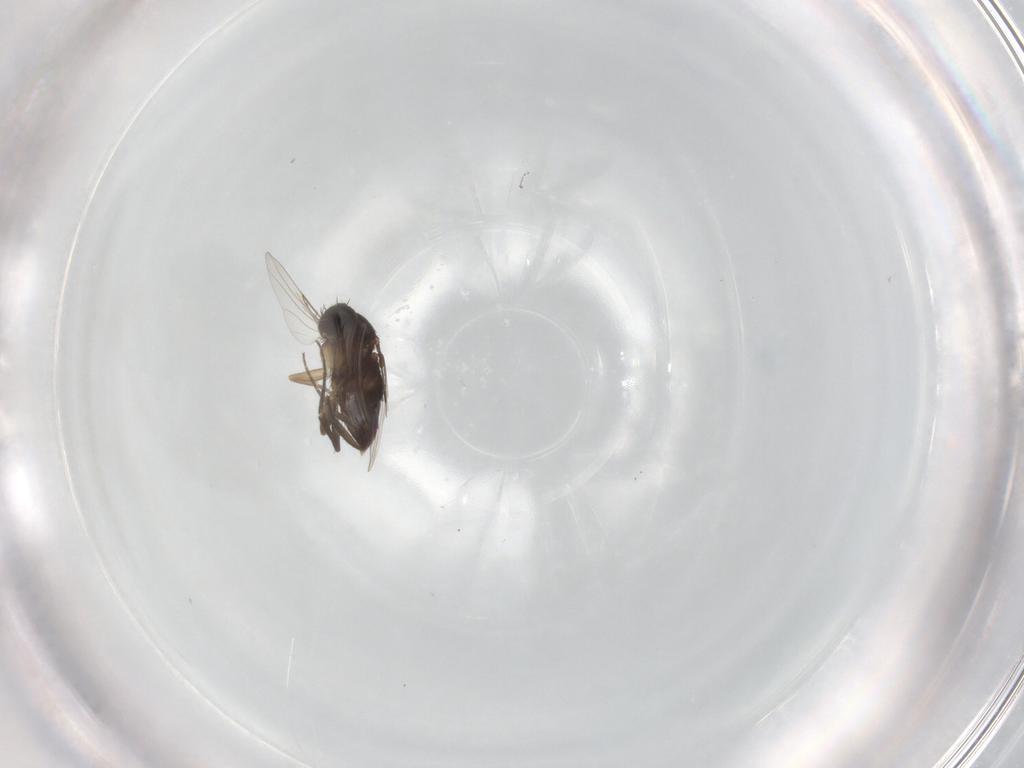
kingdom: Animalia
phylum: Arthropoda
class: Insecta
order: Diptera
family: Phoridae
